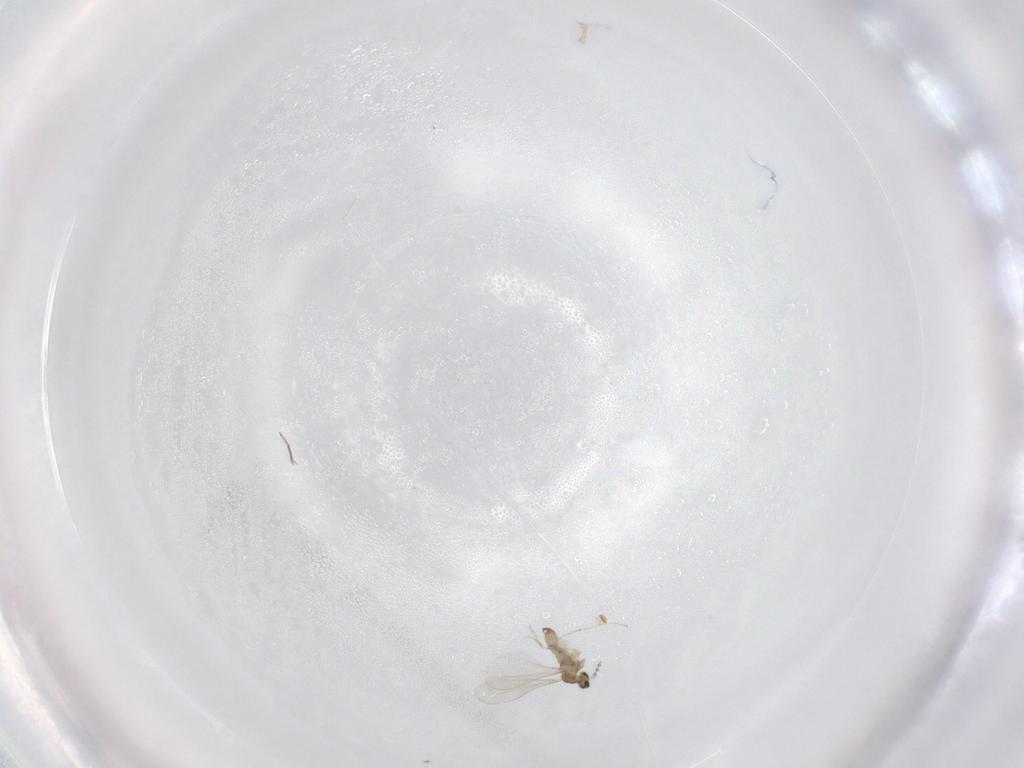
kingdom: Animalia
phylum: Arthropoda
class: Insecta
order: Diptera
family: Cecidomyiidae
